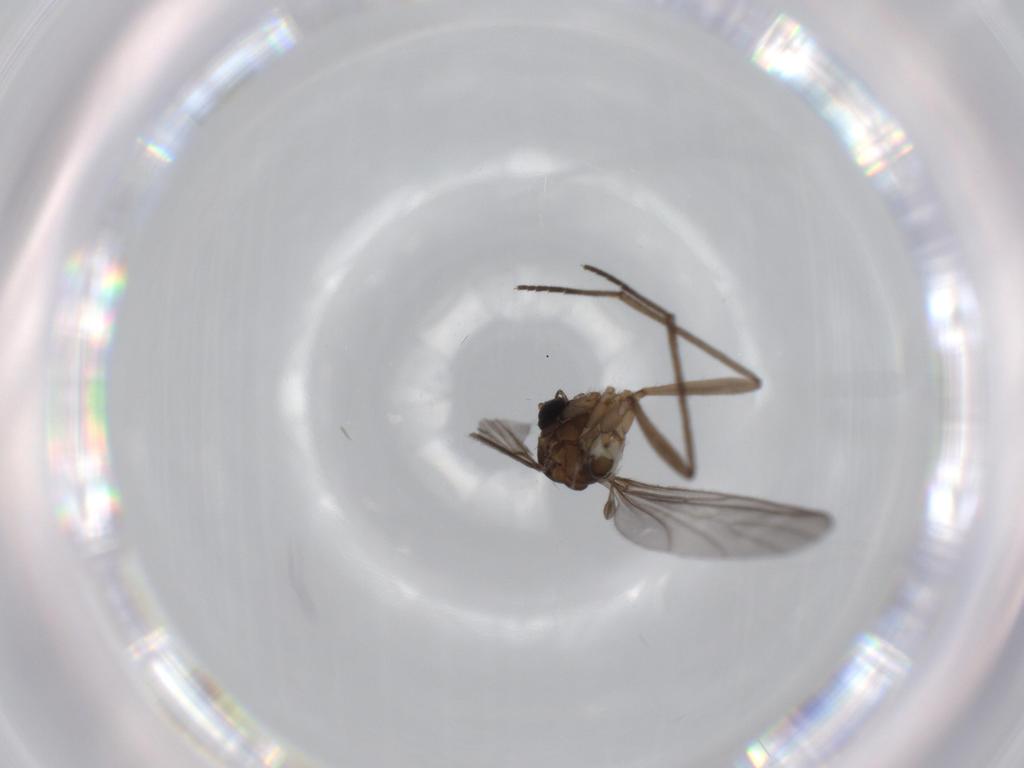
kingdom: Animalia
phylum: Arthropoda
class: Insecta
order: Diptera
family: Sciaridae
